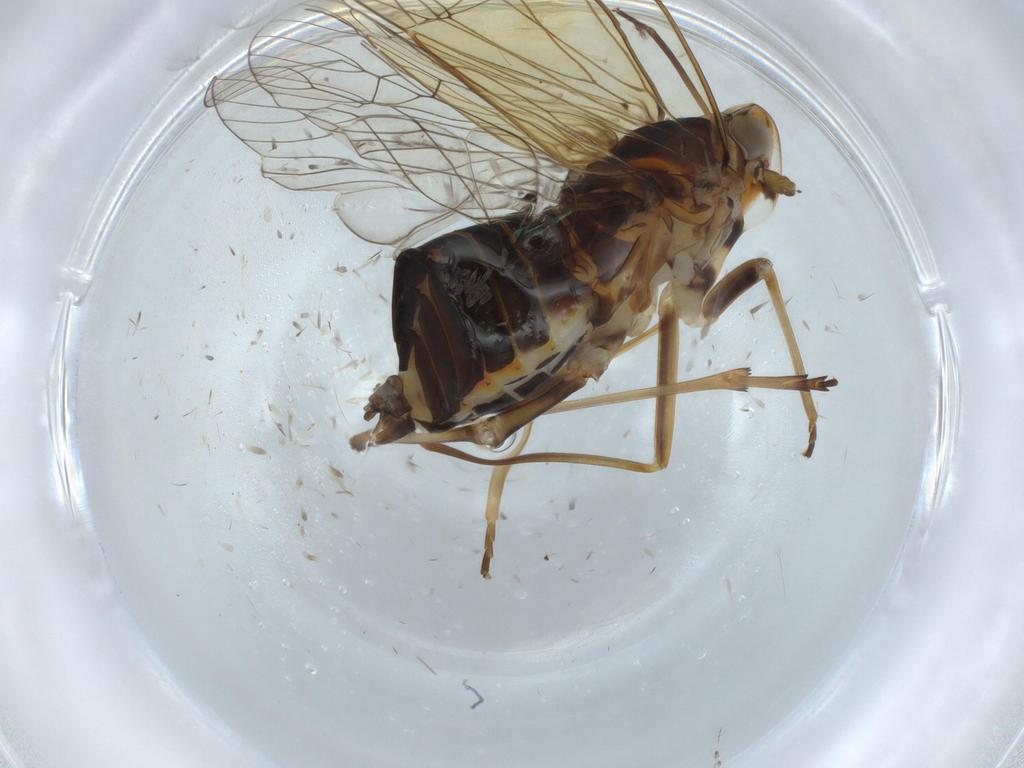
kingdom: Animalia
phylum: Arthropoda
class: Insecta
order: Hemiptera
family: Kinnaridae
